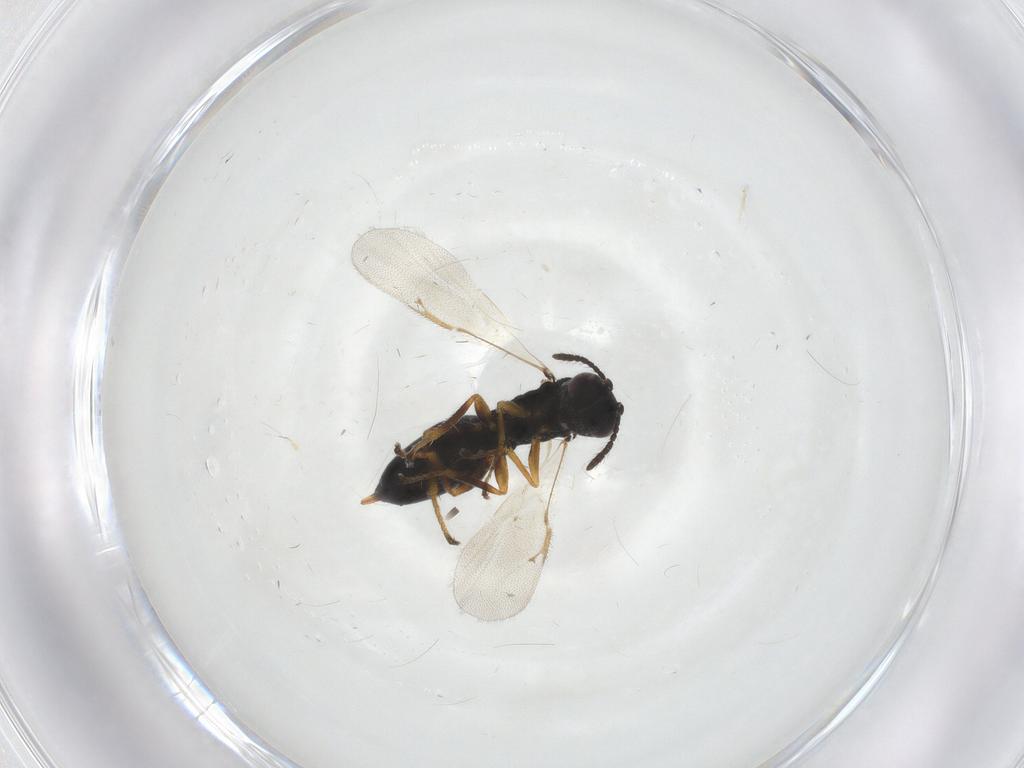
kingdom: Animalia
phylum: Arthropoda
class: Insecta
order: Hymenoptera
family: Eurytomidae
